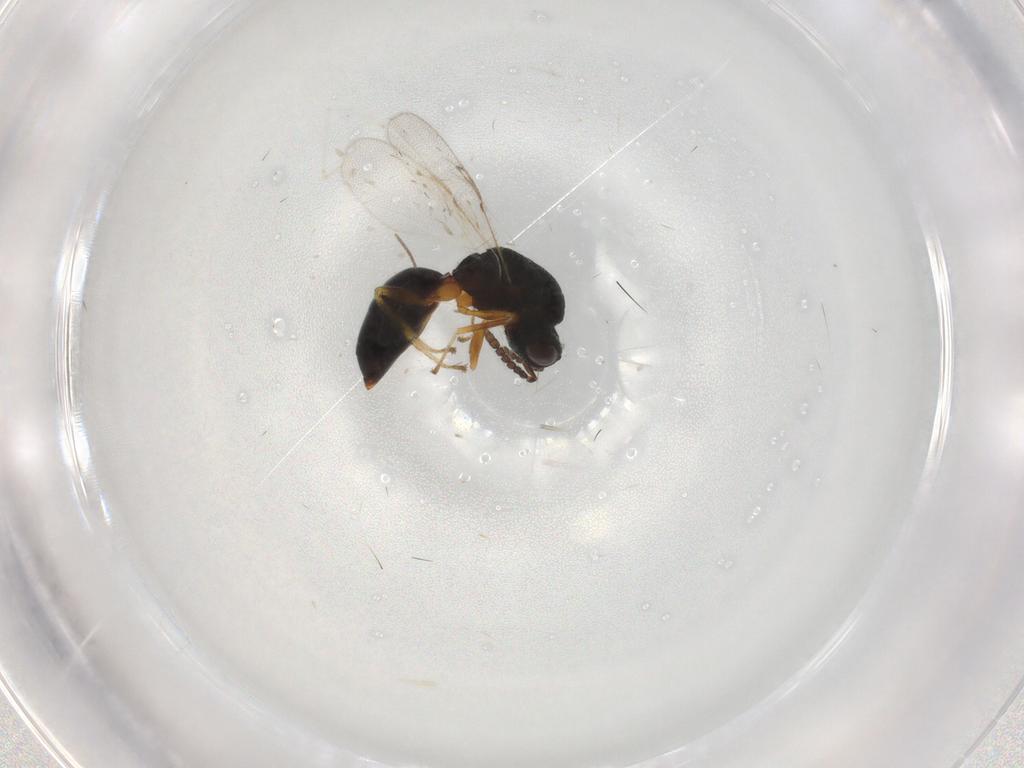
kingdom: Animalia
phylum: Arthropoda
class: Insecta
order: Hymenoptera
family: Eurytomidae
